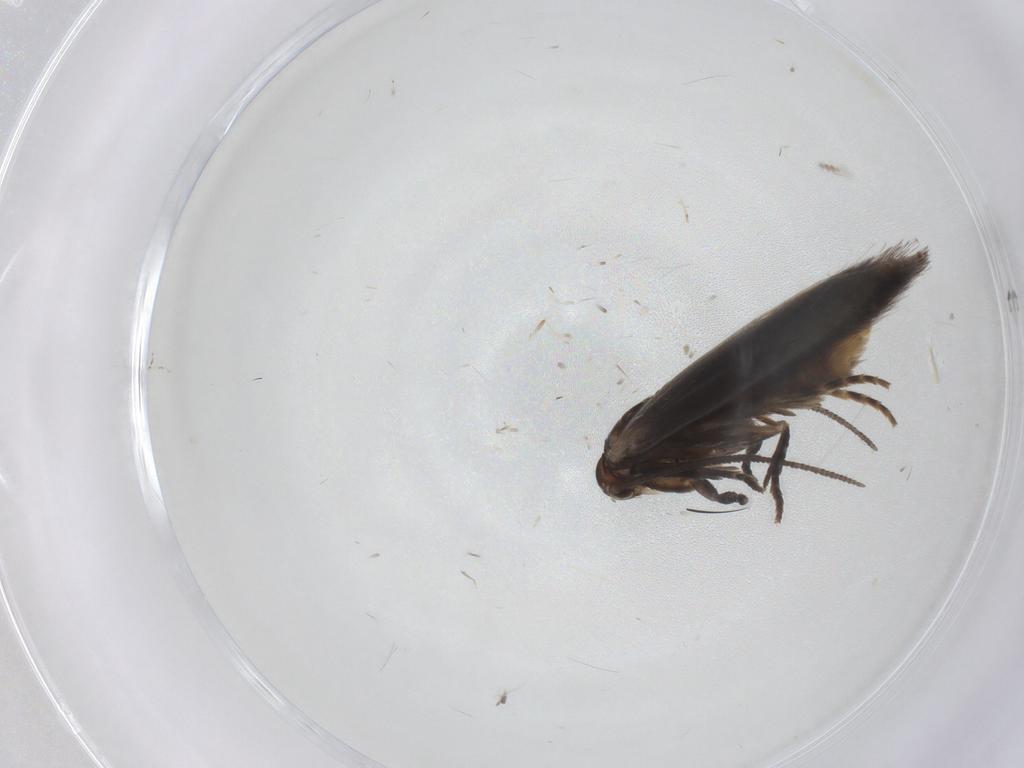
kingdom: Animalia
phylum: Arthropoda
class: Insecta
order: Lepidoptera
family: Elachistidae
